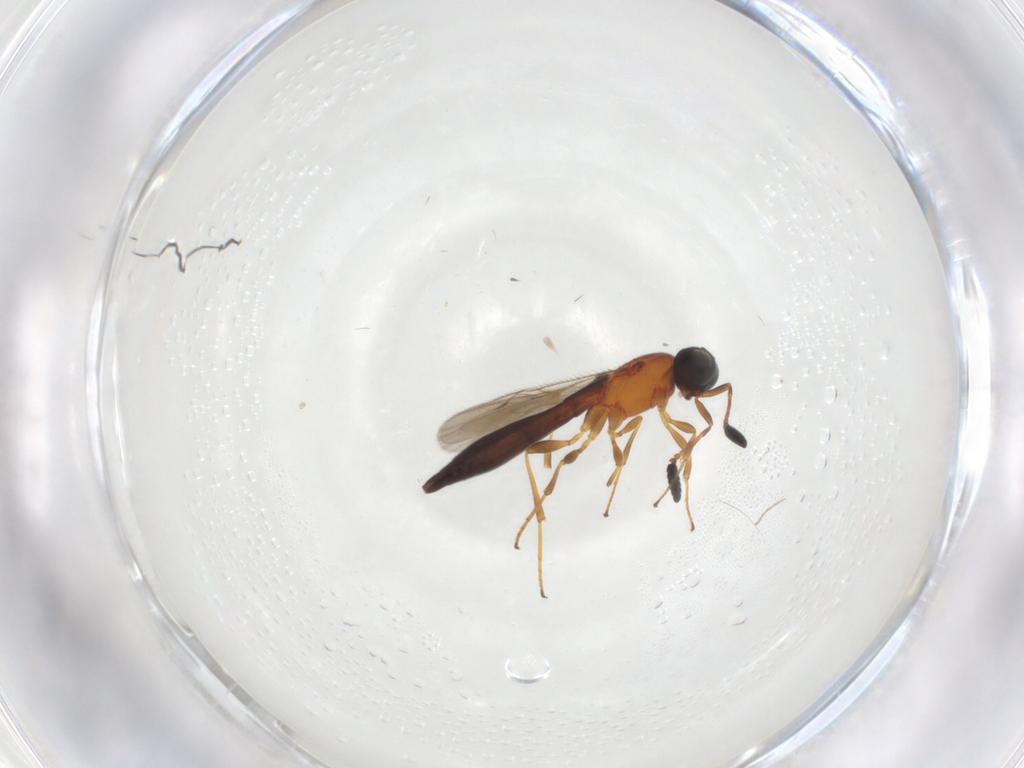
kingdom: Animalia
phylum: Arthropoda
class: Insecta
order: Hymenoptera
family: Scelionidae
